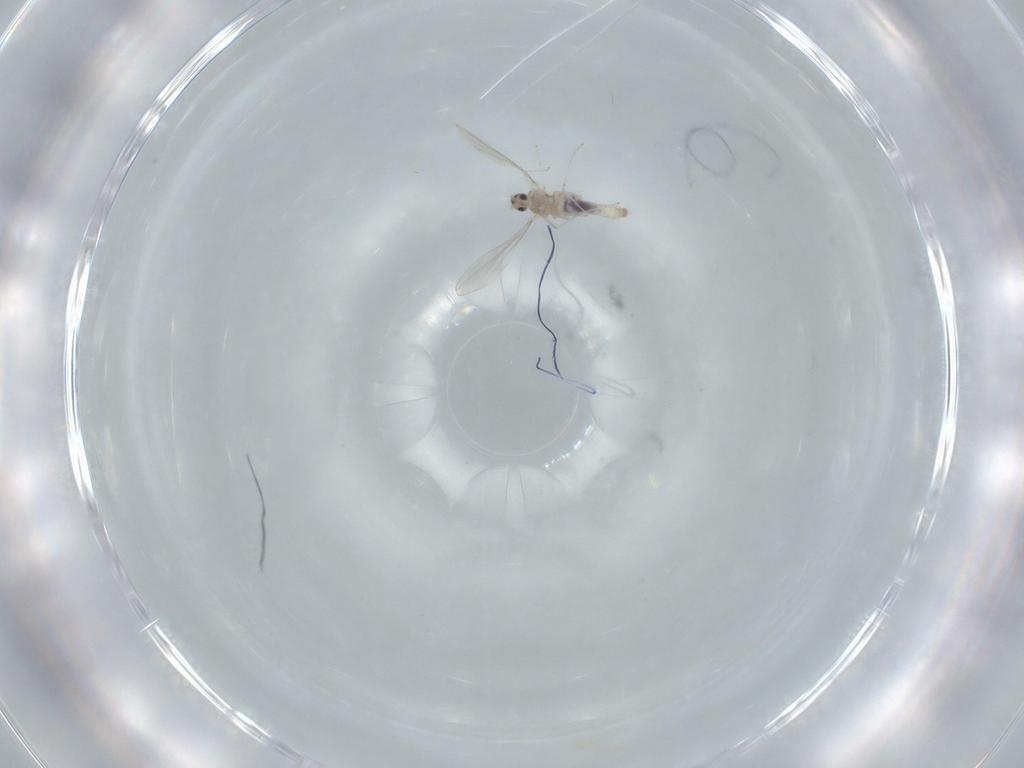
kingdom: Animalia
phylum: Arthropoda
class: Insecta
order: Diptera
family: Cecidomyiidae
